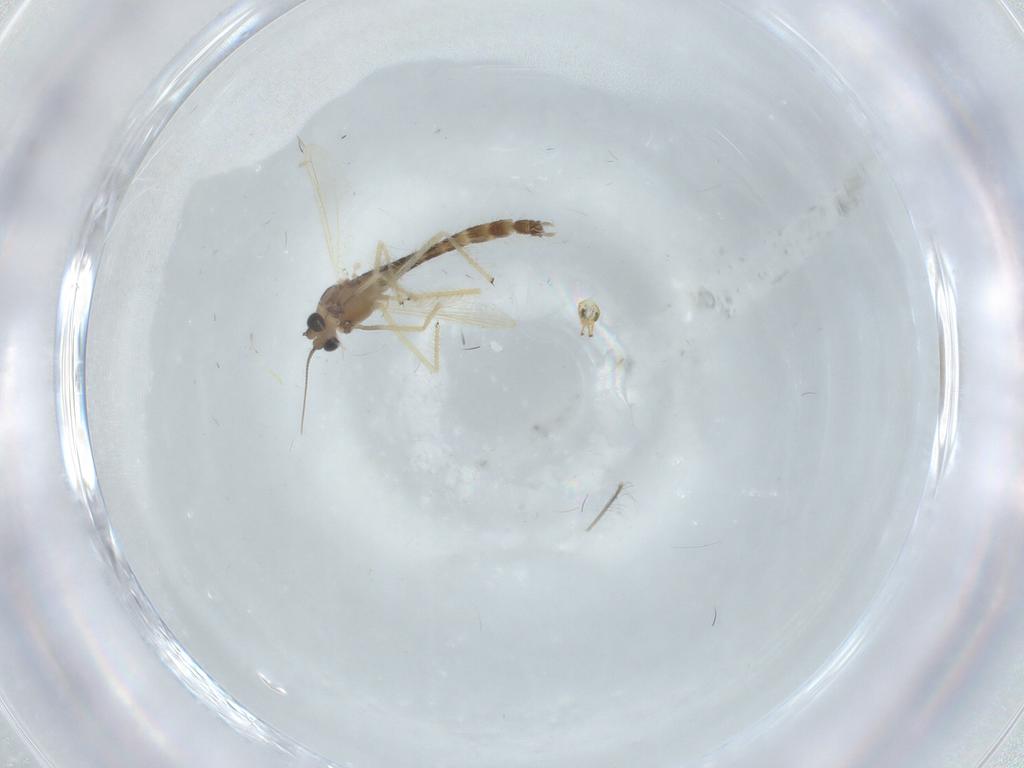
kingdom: Animalia
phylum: Arthropoda
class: Insecta
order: Diptera
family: Chironomidae
